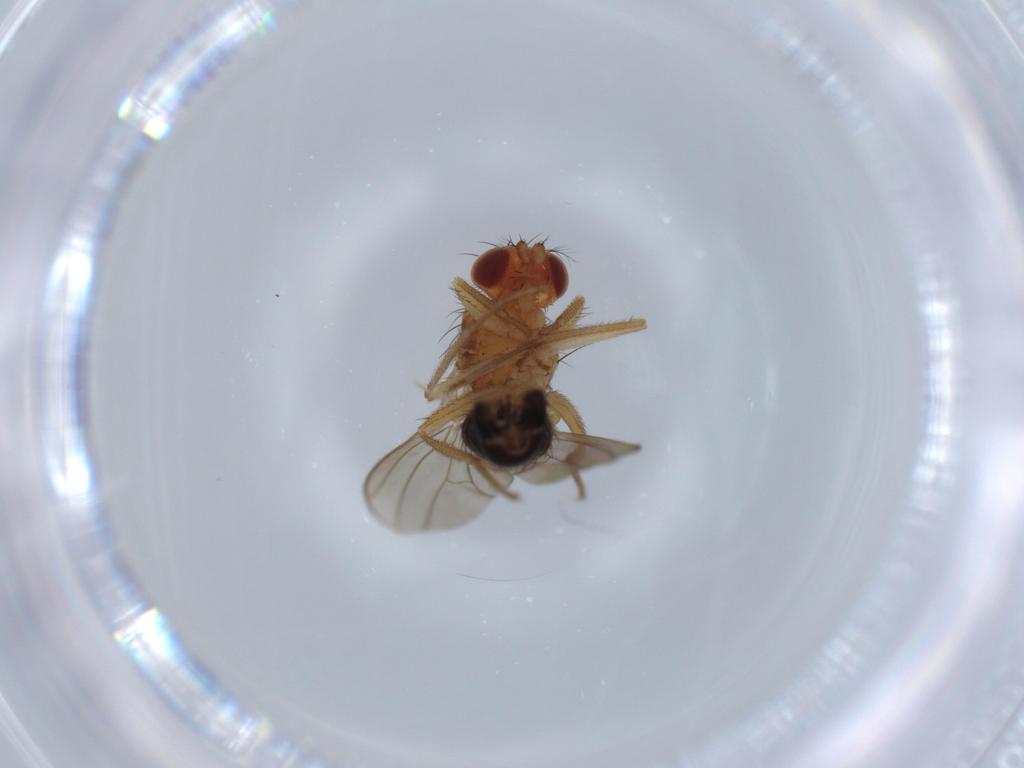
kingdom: Animalia
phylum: Arthropoda
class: Insecta
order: Diptera
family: Drosophilidae
